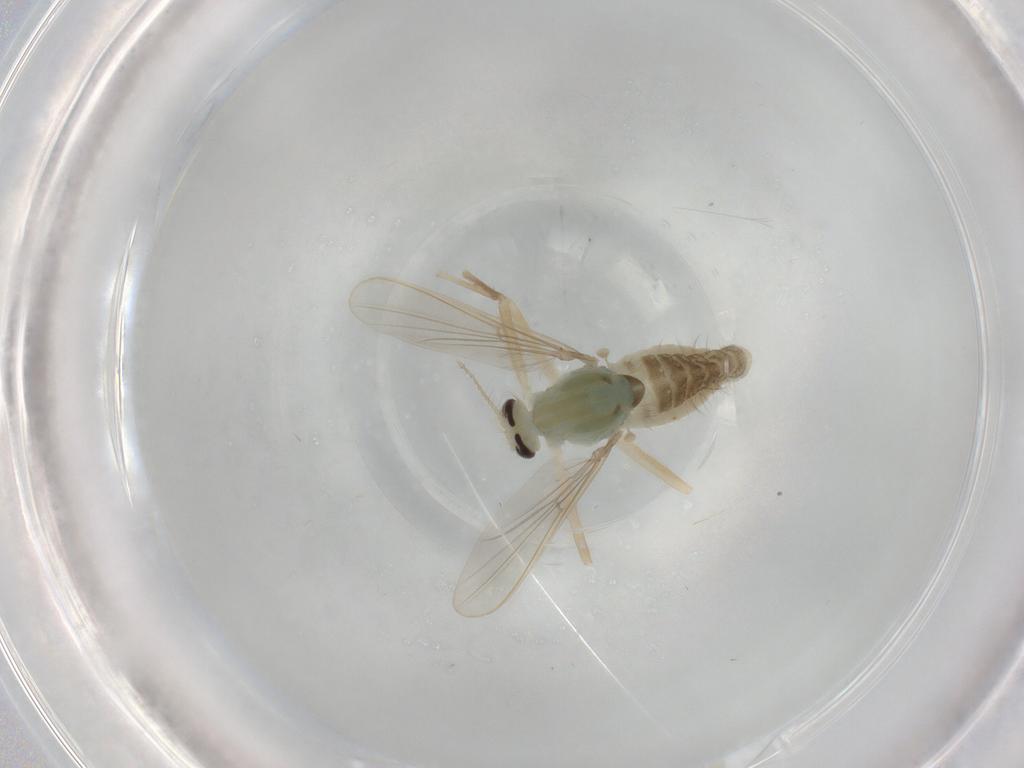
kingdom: Animalia
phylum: Arthropoda
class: Insecta
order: Diptera
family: Chironomidae
